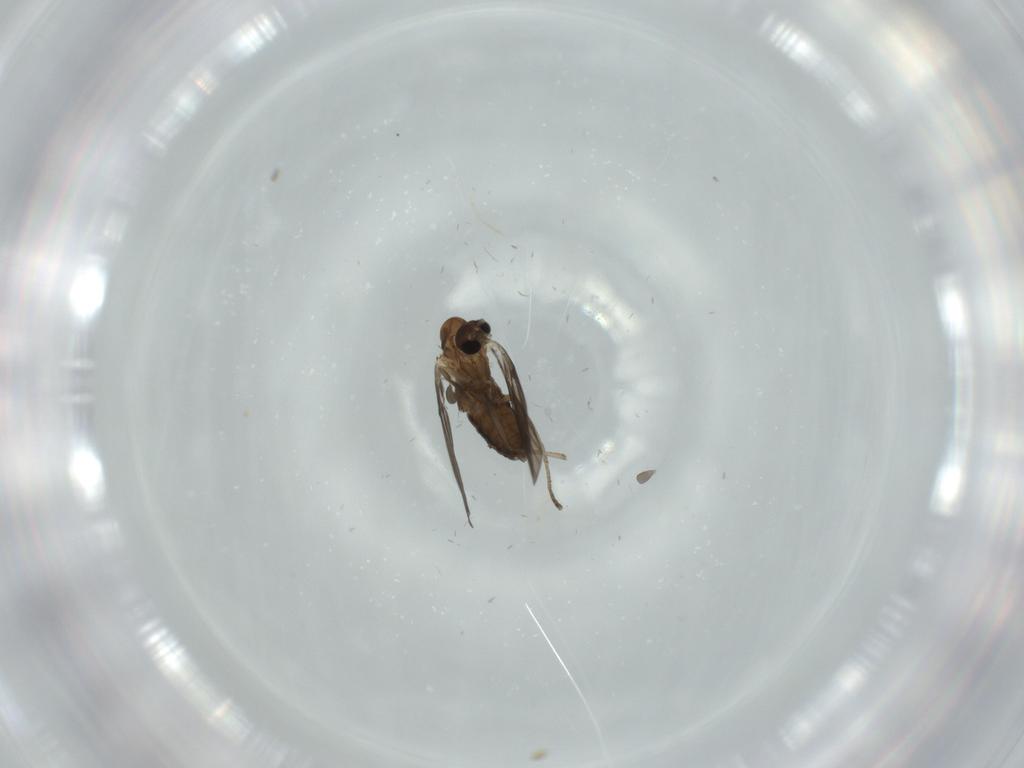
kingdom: Animalia
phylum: Arthropoda
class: Insecta
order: Diptera
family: Psychodidae
